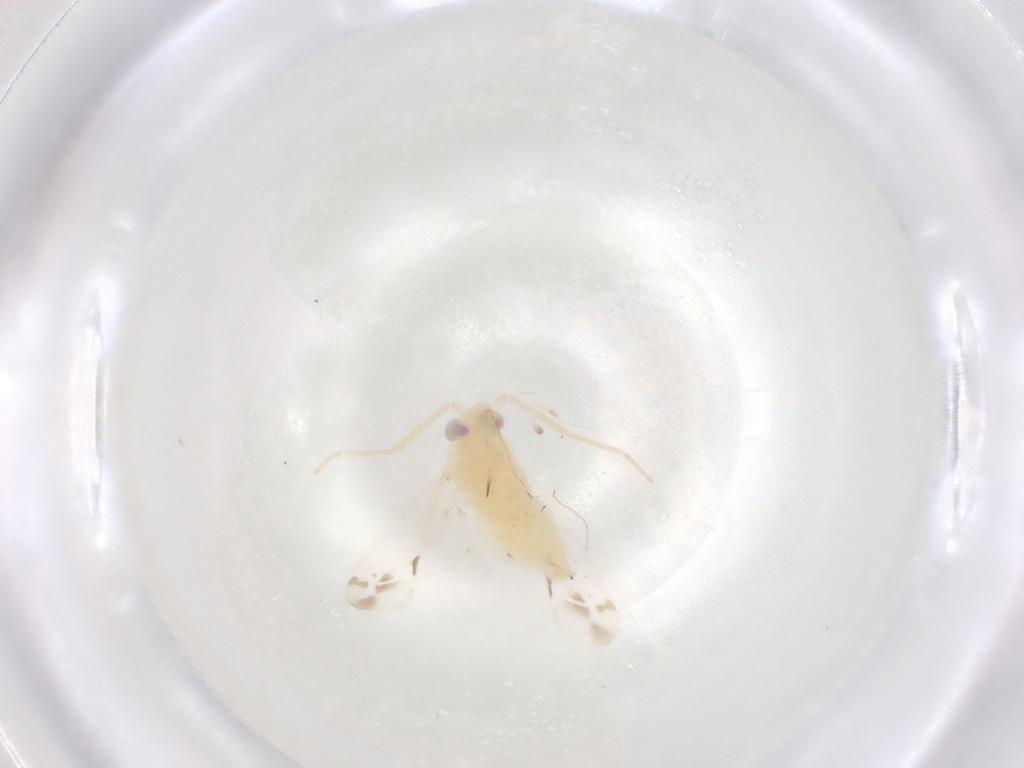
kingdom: Animalia
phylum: Arthropoda
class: Insecta
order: Hemiptera
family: Miridae
